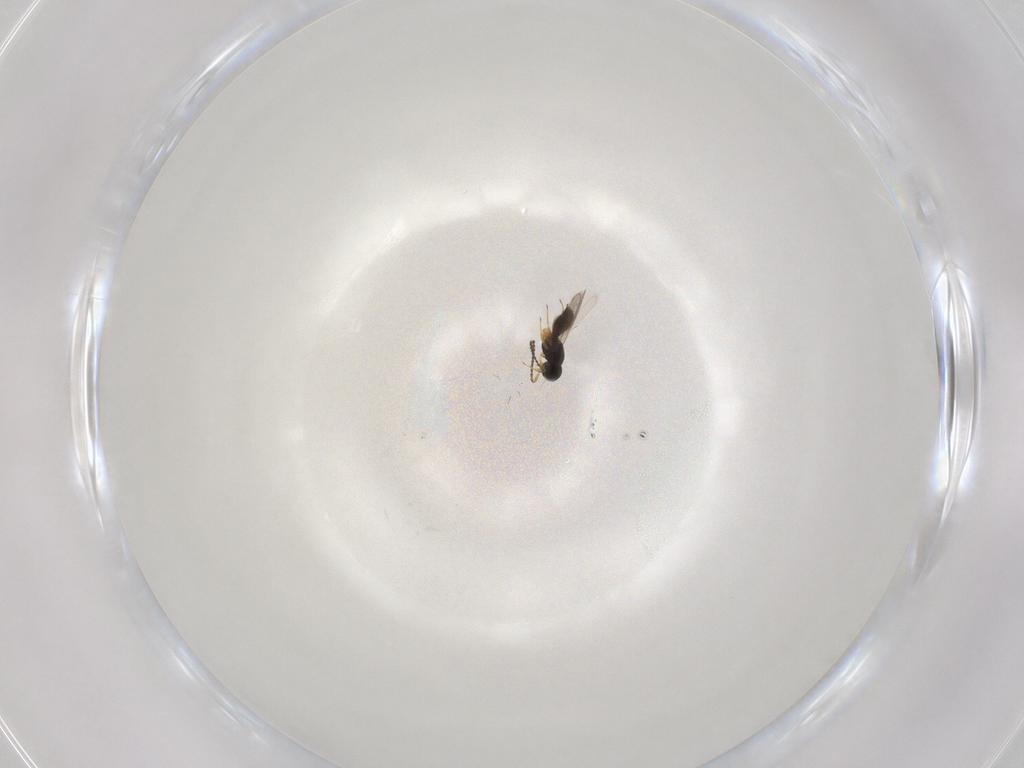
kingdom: Animalia
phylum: Arthropoda
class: Insecta
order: Hymenoptera
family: Scelionidae
